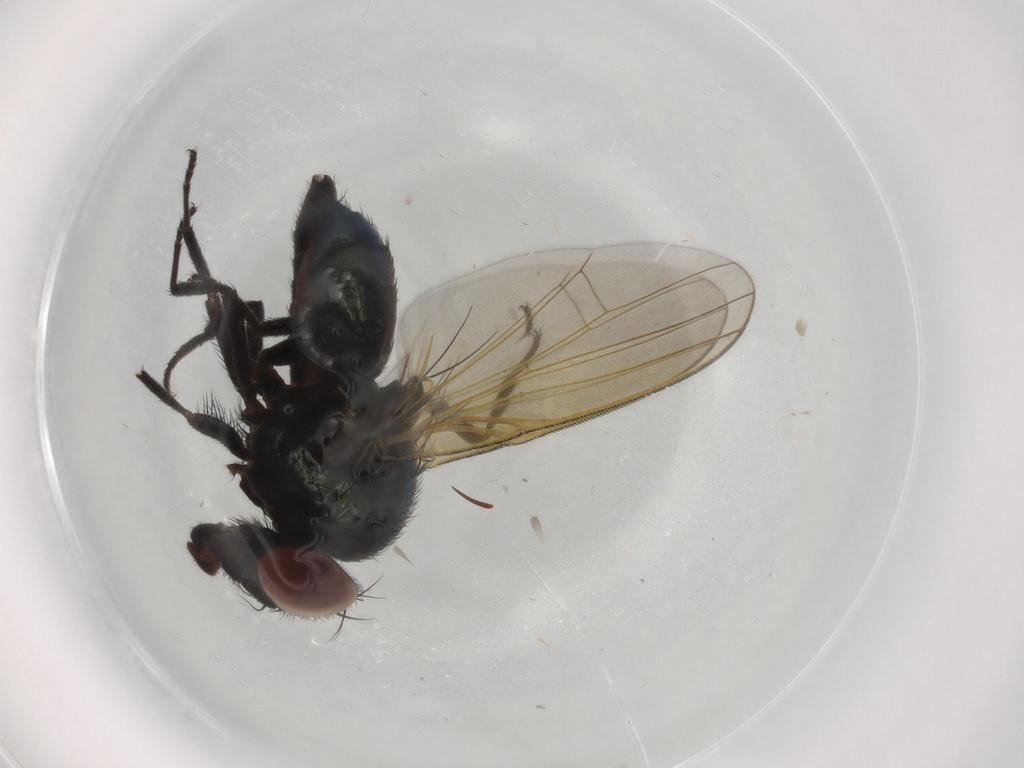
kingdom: Animalia
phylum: Arthropoda
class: Insecta
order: Diptera
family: Lonchaeidae
